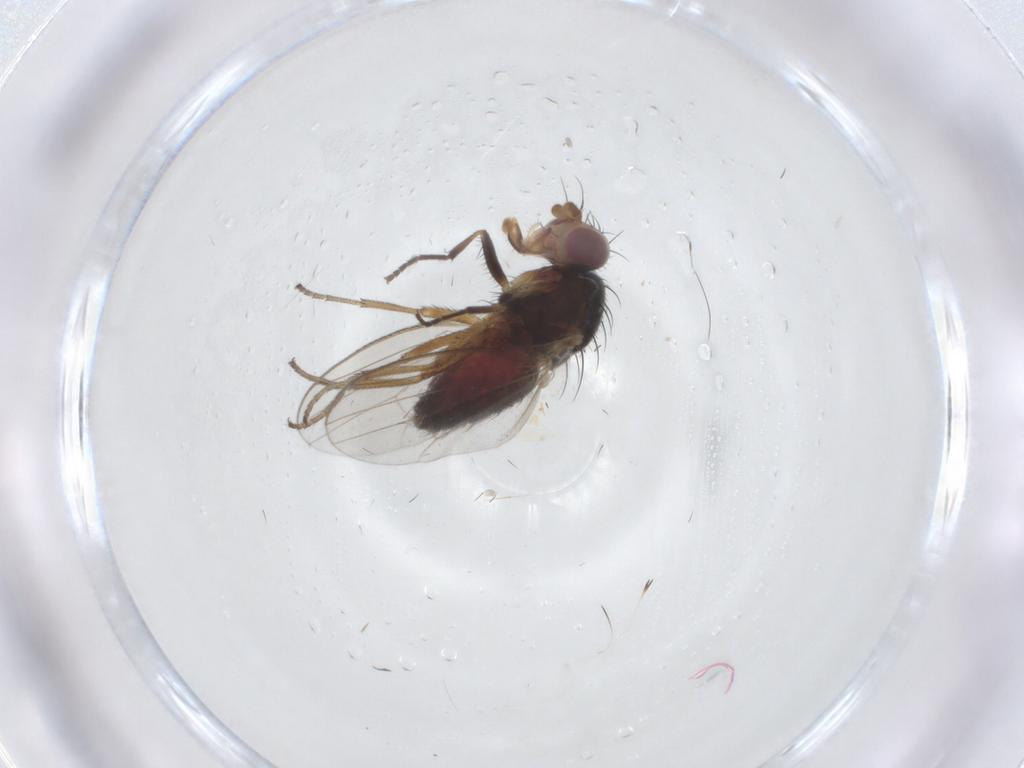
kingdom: Animalia
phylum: Arthropoda
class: Insecta
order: Diptera
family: Heleomyzidae
